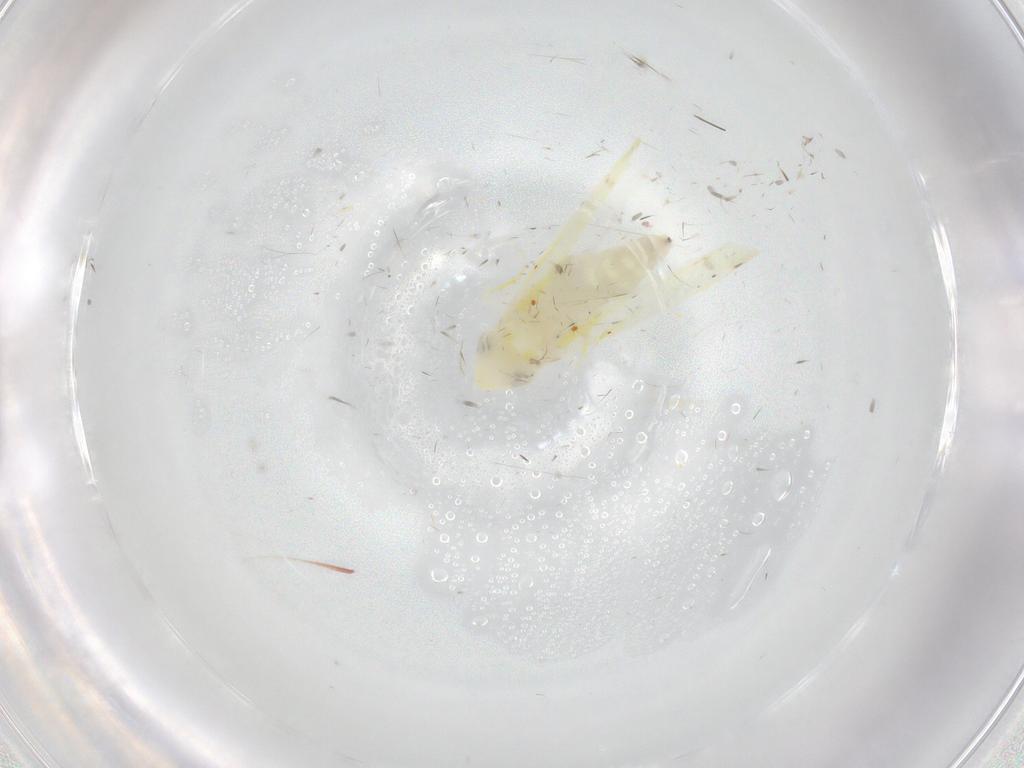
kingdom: Animalia
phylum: Arthropoda
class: Insecta
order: Hemiptera
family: Cicadellidae
